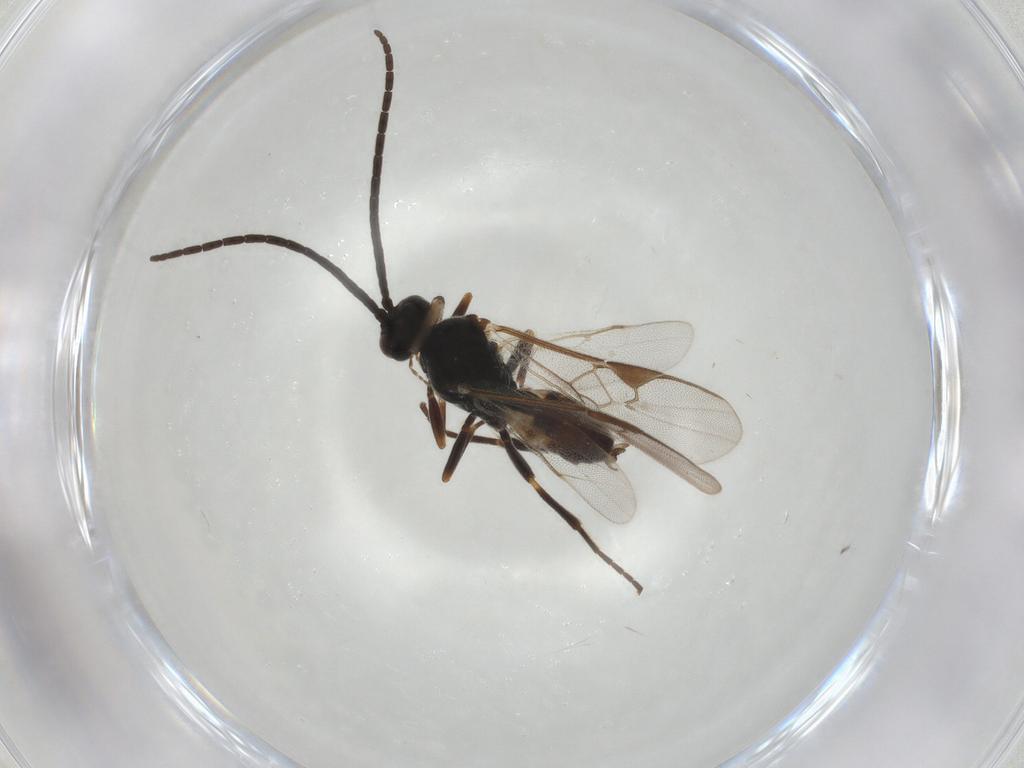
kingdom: Animalia
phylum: Arthropoda
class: Insecta
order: Hymenoptera
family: Braconidae
